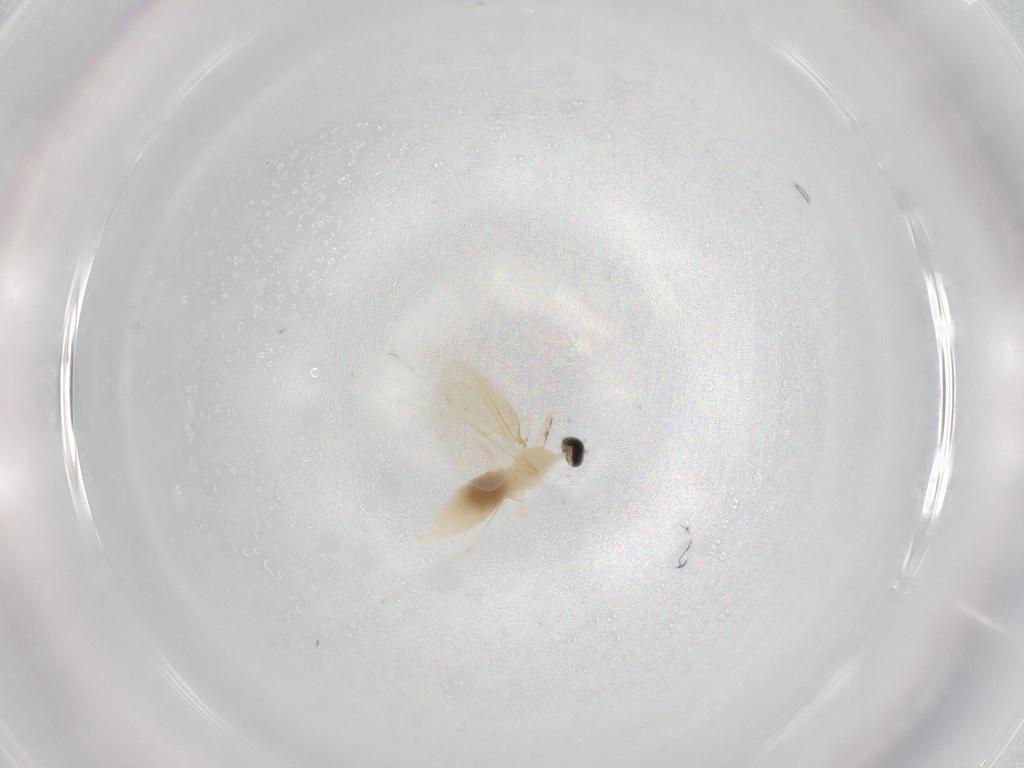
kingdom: Animalia
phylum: Arthropoda
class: Insecta
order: Diptera
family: Cecidomyiidae
